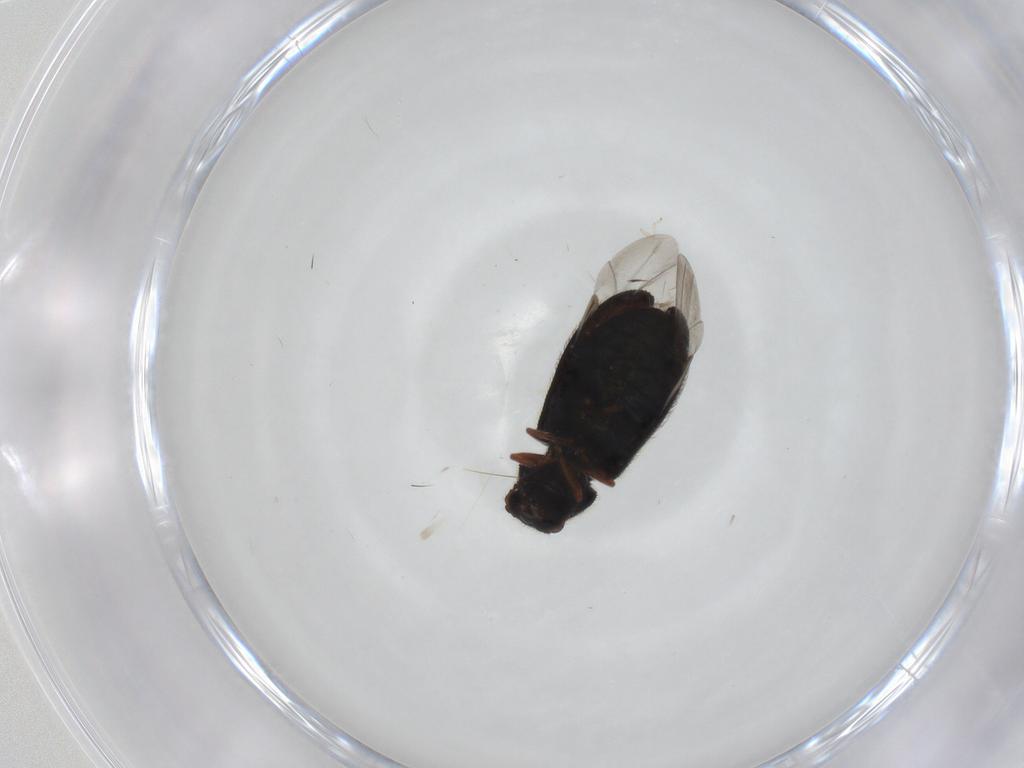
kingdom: Animalia
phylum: Arthropoda
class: Insecta
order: Coleoptera
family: Melyridae
